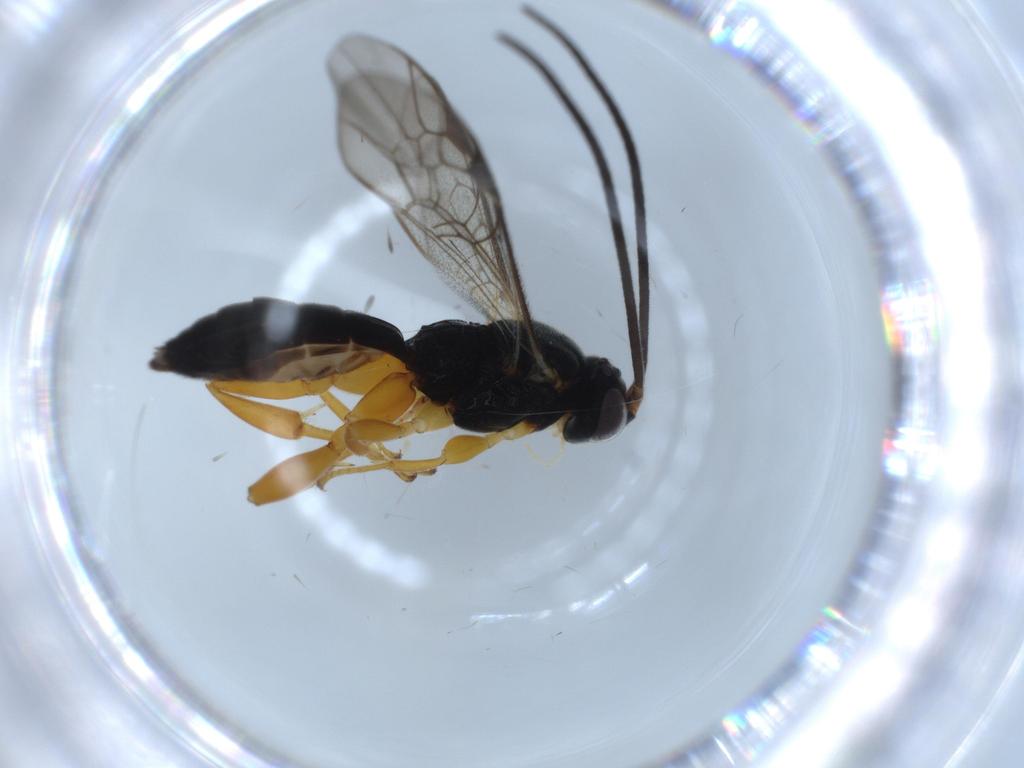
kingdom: Animalia
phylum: Arthropoda
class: Insecta
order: Hymenoptera
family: Ichneumonidae
